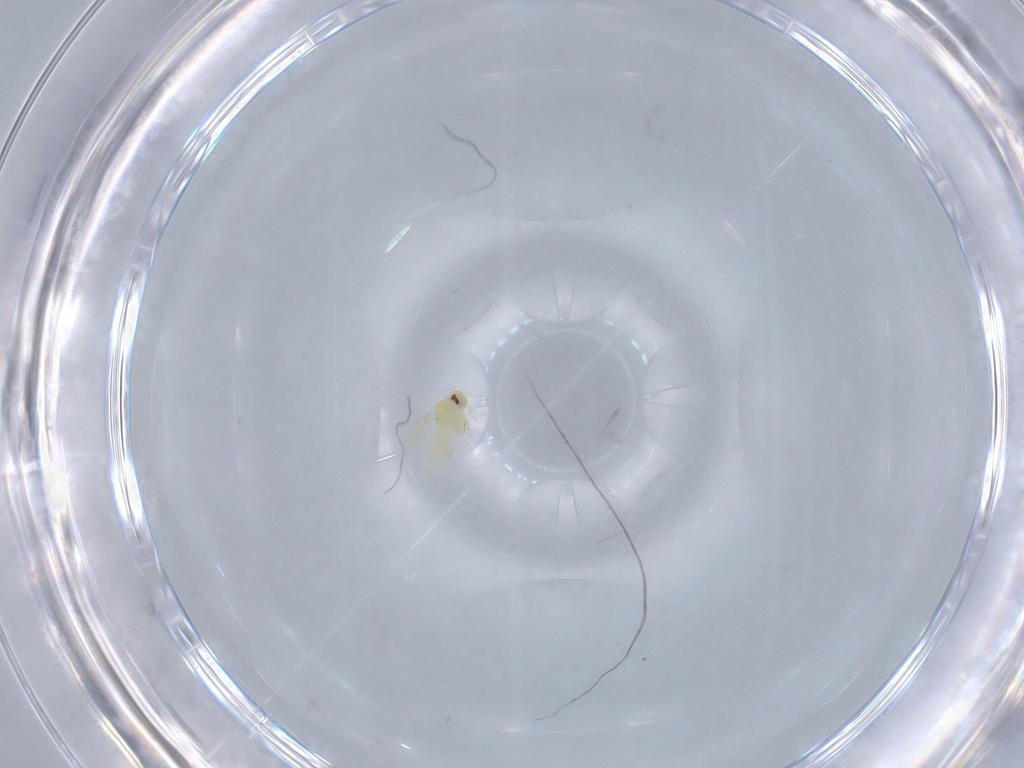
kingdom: Animalia
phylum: Arthropoda
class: Insecta
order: Hemiptera
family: Aleyrodidae
